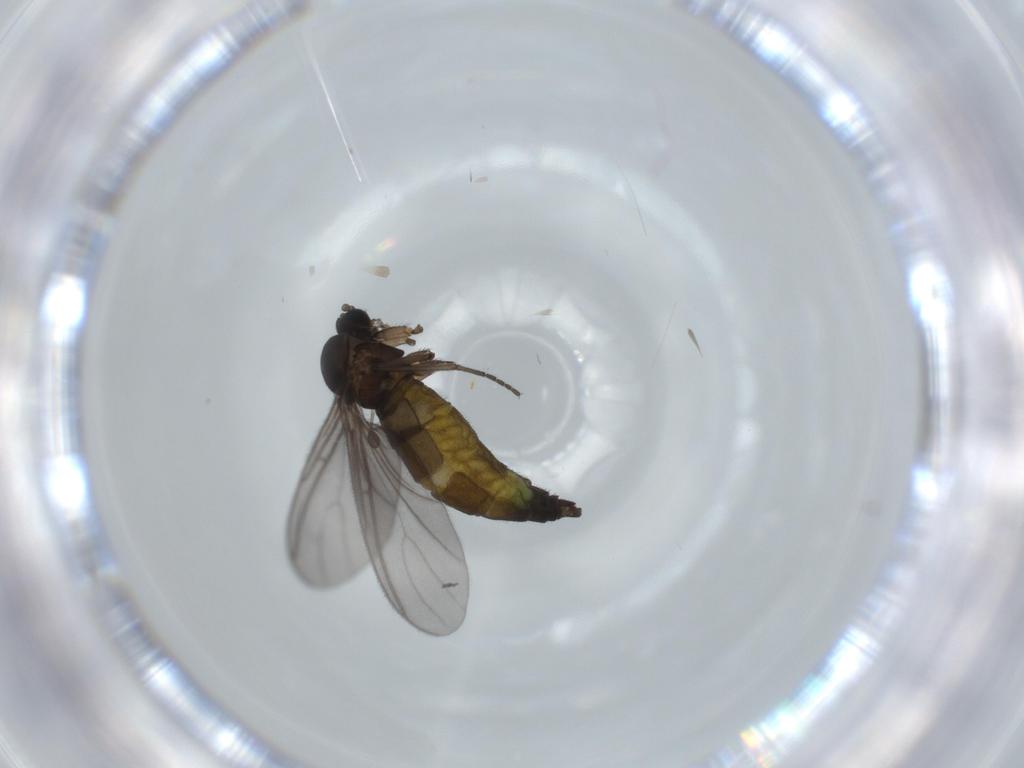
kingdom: Animalia
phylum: Arthropoda
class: Insecta
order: Diptera
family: Sciaridae
